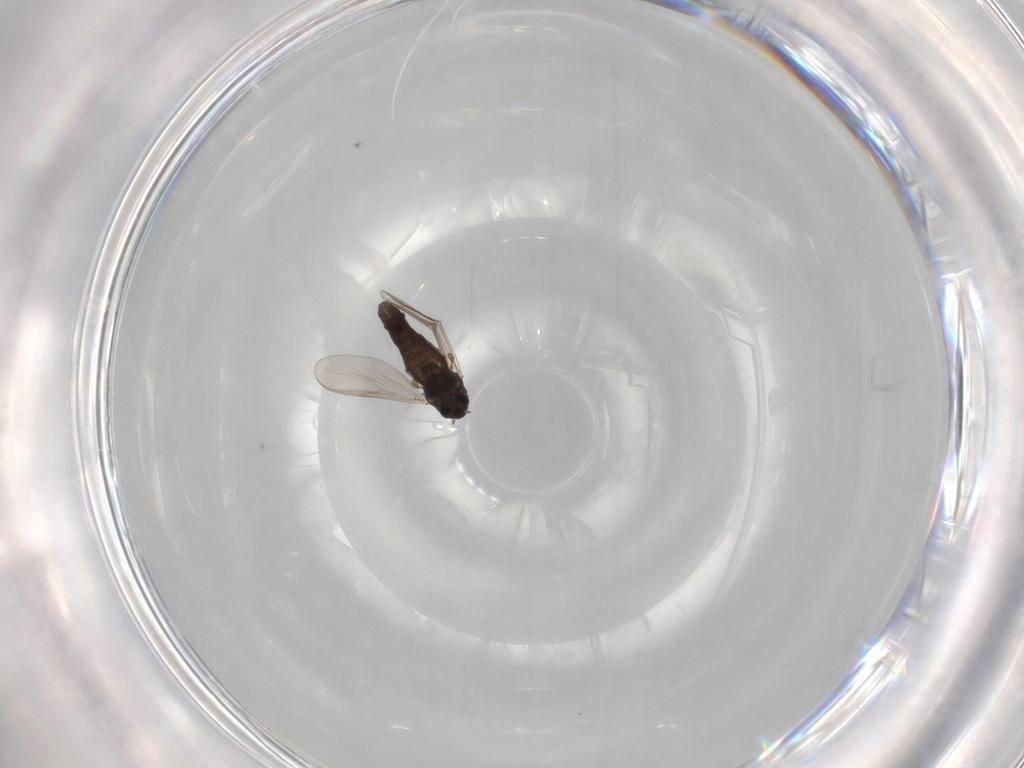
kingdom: Animalia
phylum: Arthropoda
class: Insecta
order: Diptera
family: Chironomidae
